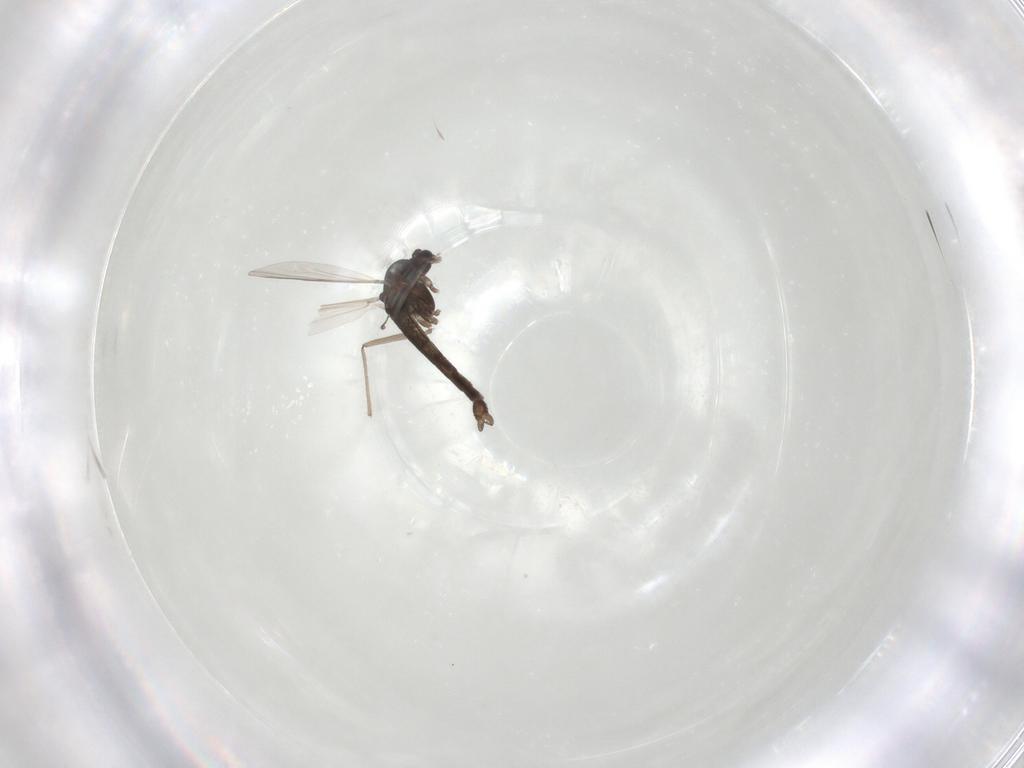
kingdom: Animalia
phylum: Arthropoda
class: Insecta
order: Diptera
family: Chironomidae
